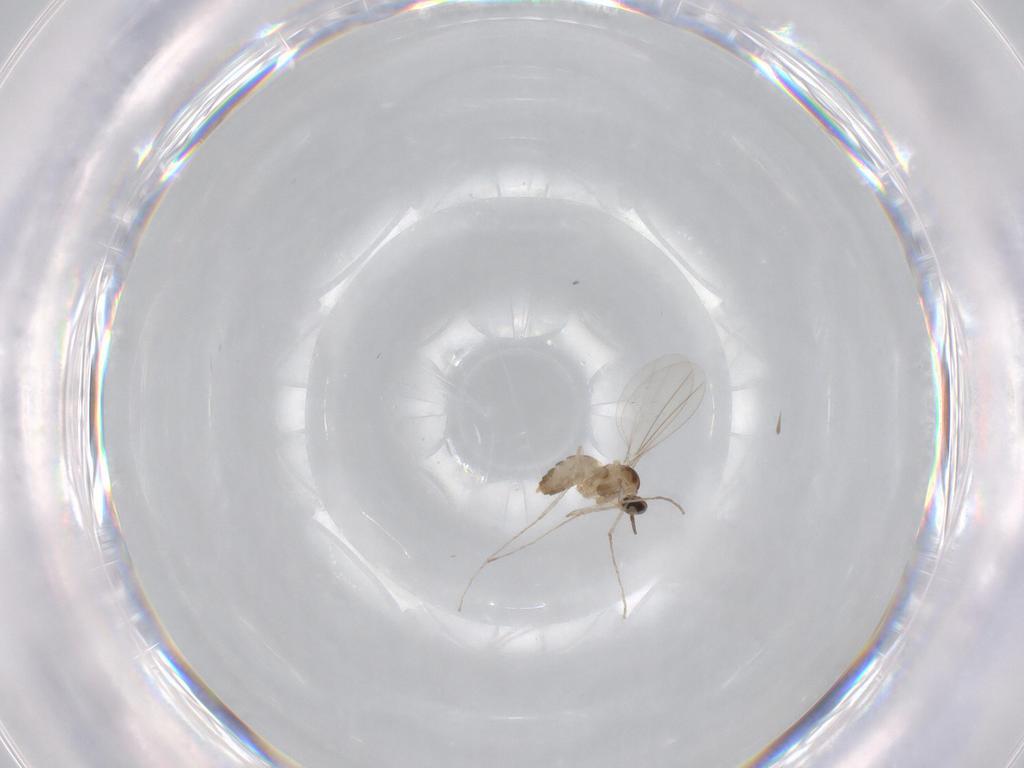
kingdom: Animalia
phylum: Arthropoda
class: Insecta
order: Diptera
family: Cecidomyiidae
